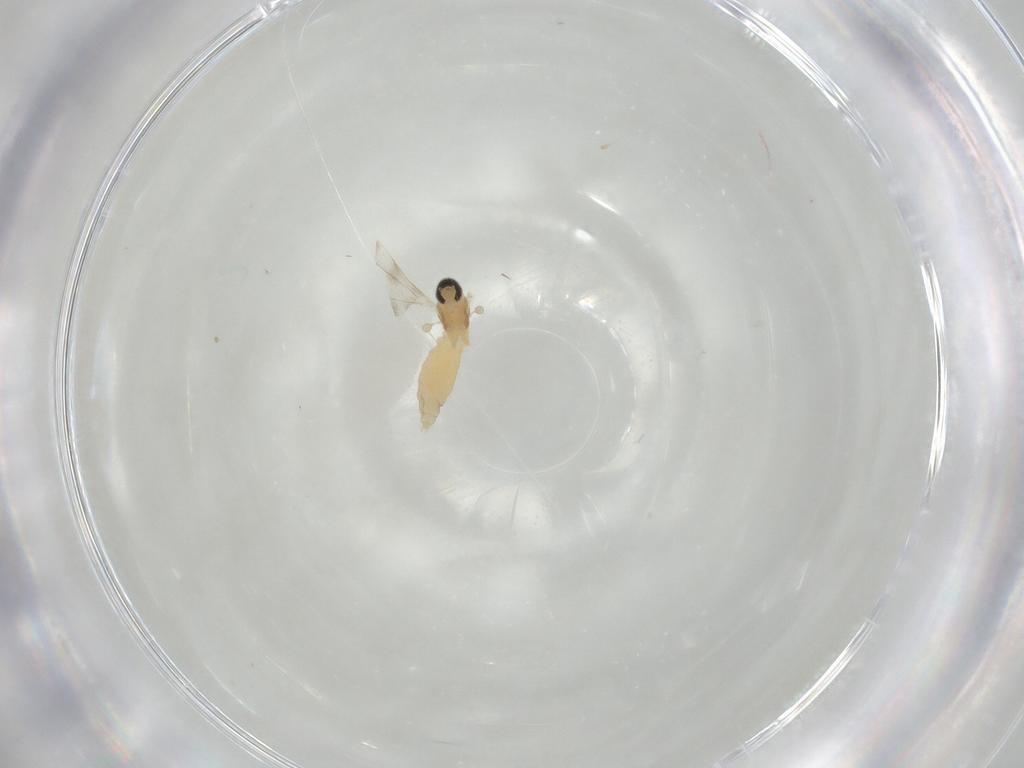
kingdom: Animalia
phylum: Arthropoda
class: Insecta
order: Diptera
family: Cecidomyiidae
